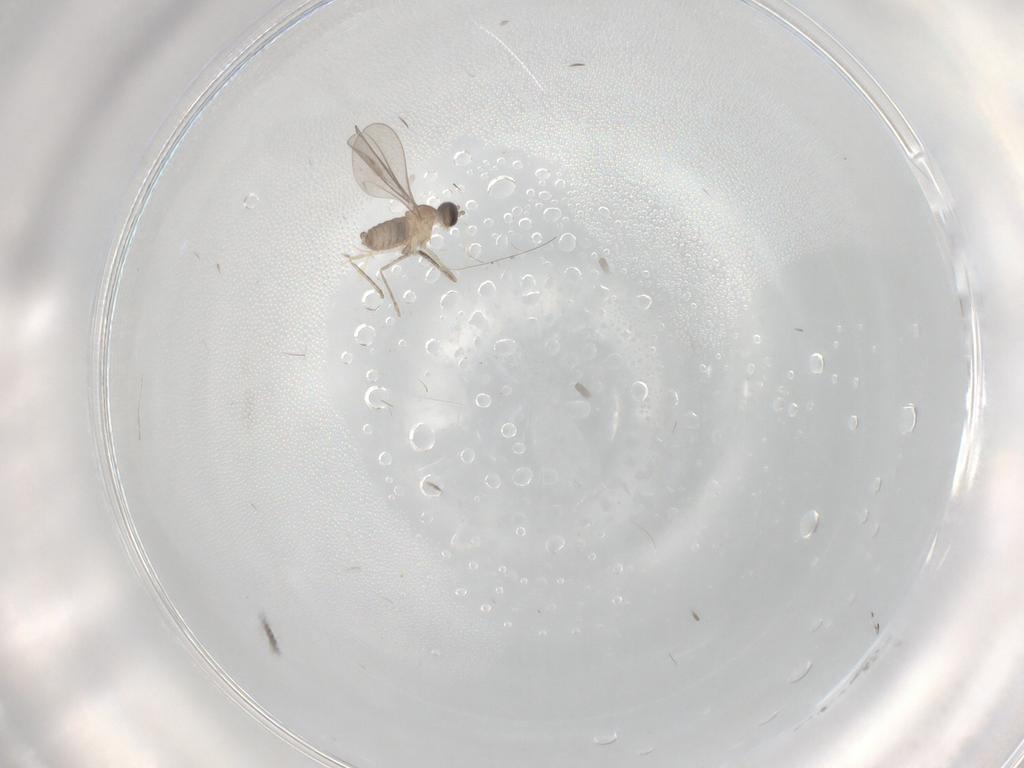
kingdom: Animalia
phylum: Arthropoda
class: Insecta
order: Diptera
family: Cecidomyiidae
